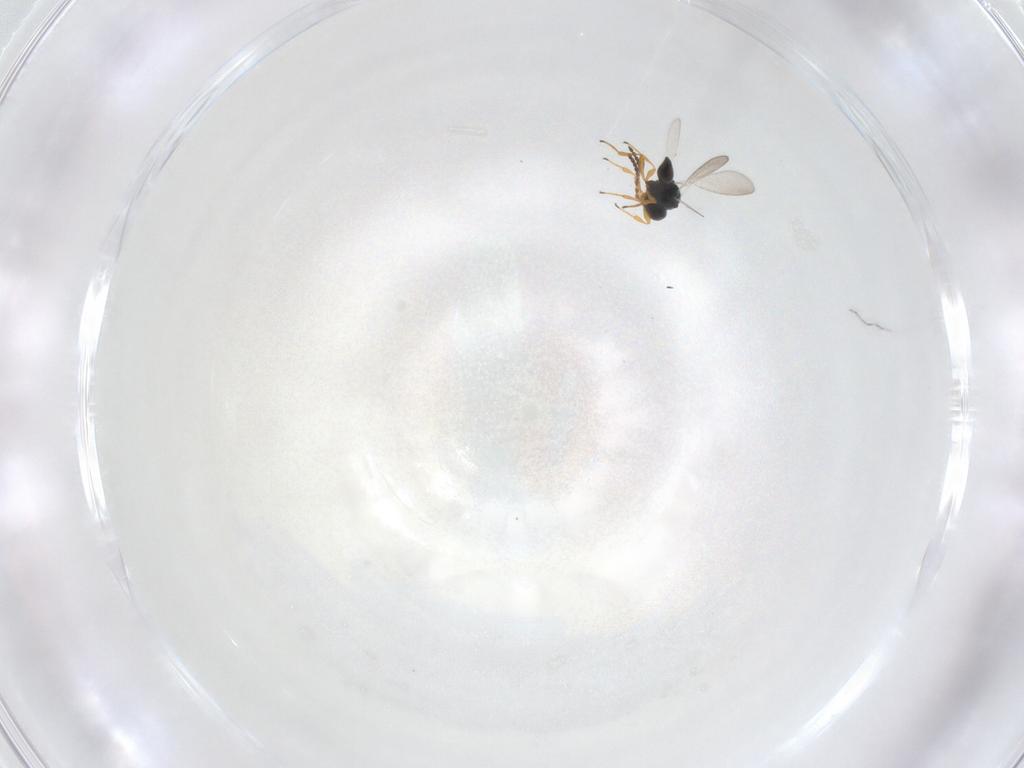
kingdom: Animalia
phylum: Arthropoda
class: Insecta
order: Hymenoptera
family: Platygastridae
